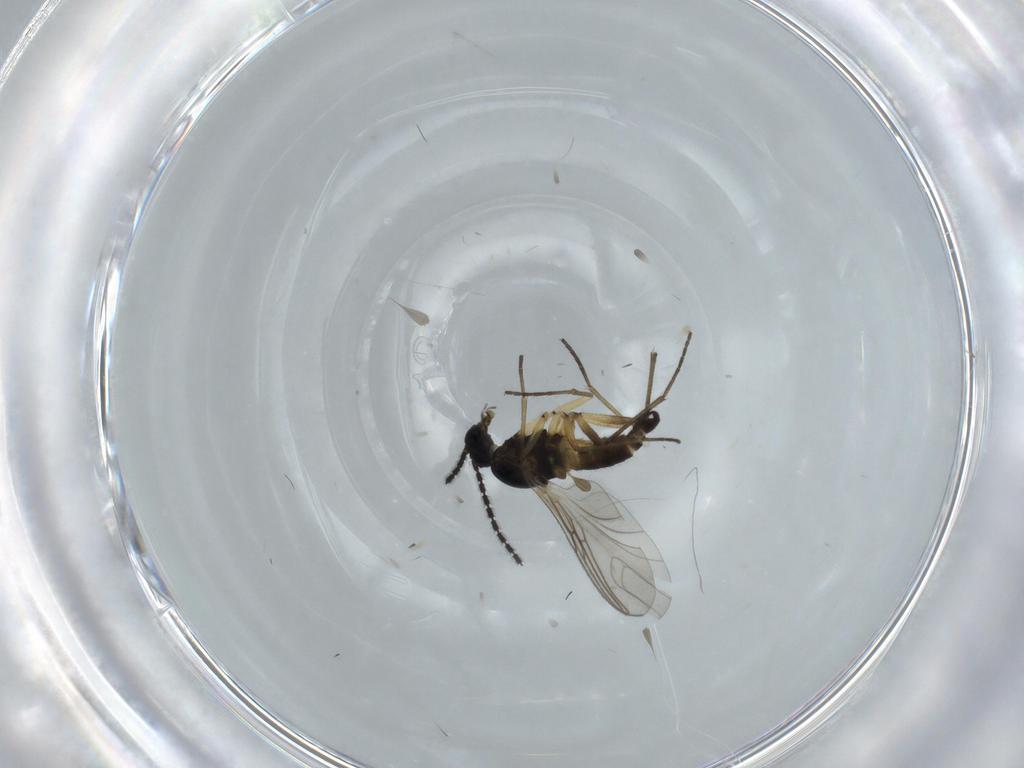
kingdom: Animalia
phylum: Arthropoda
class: Insecta
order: Diptera
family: Sciaridae
